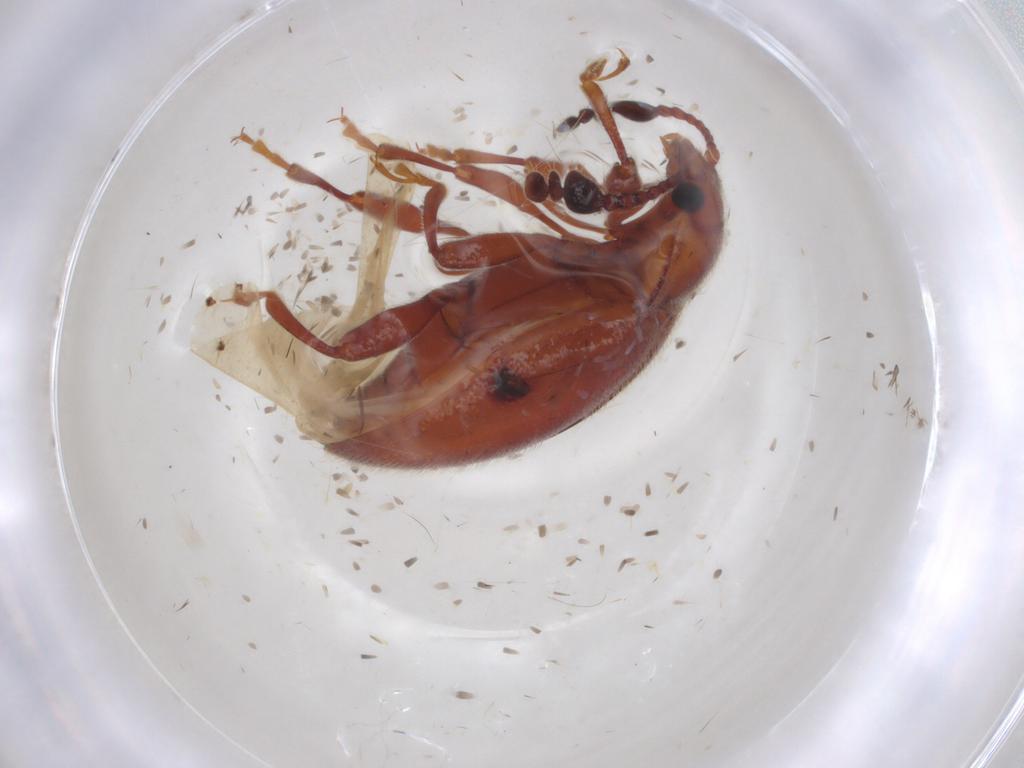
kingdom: Animalia
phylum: Arthropoda
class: Insecta
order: Coleoptera
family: Endomychidae
